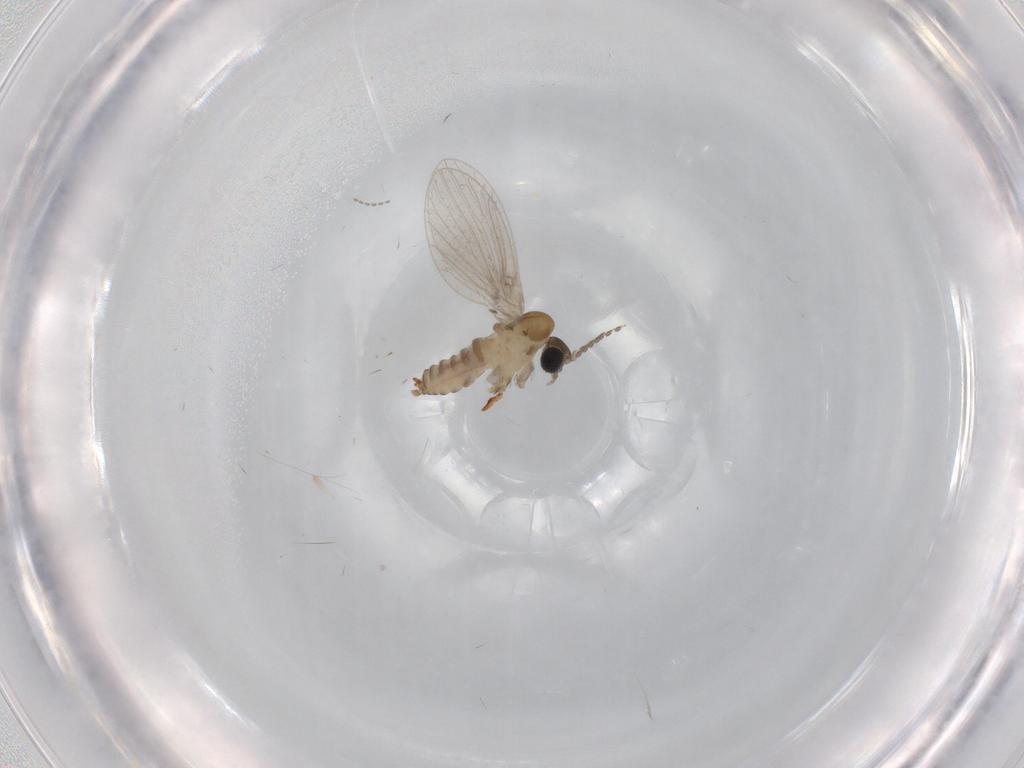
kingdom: Animalia
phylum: Arthropoda
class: Insecta
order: Diptera
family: Cecidomyiidae
